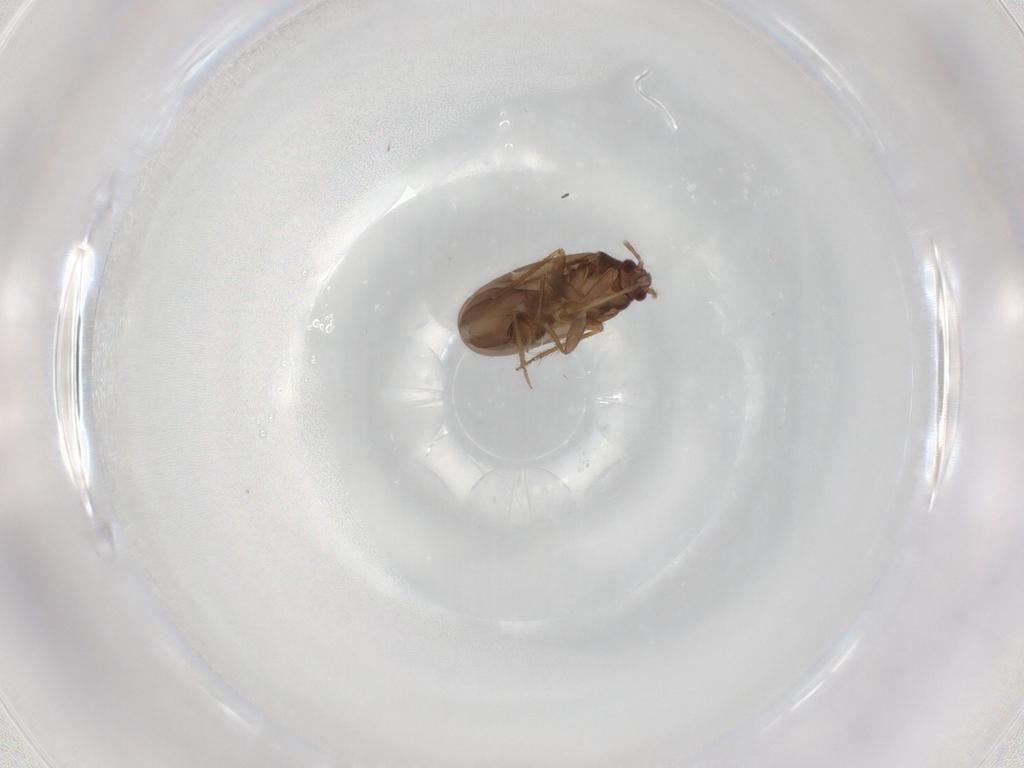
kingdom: Animalia
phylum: Arthropoda
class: Insecta
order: Hemiptera
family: Ceratocombidae
